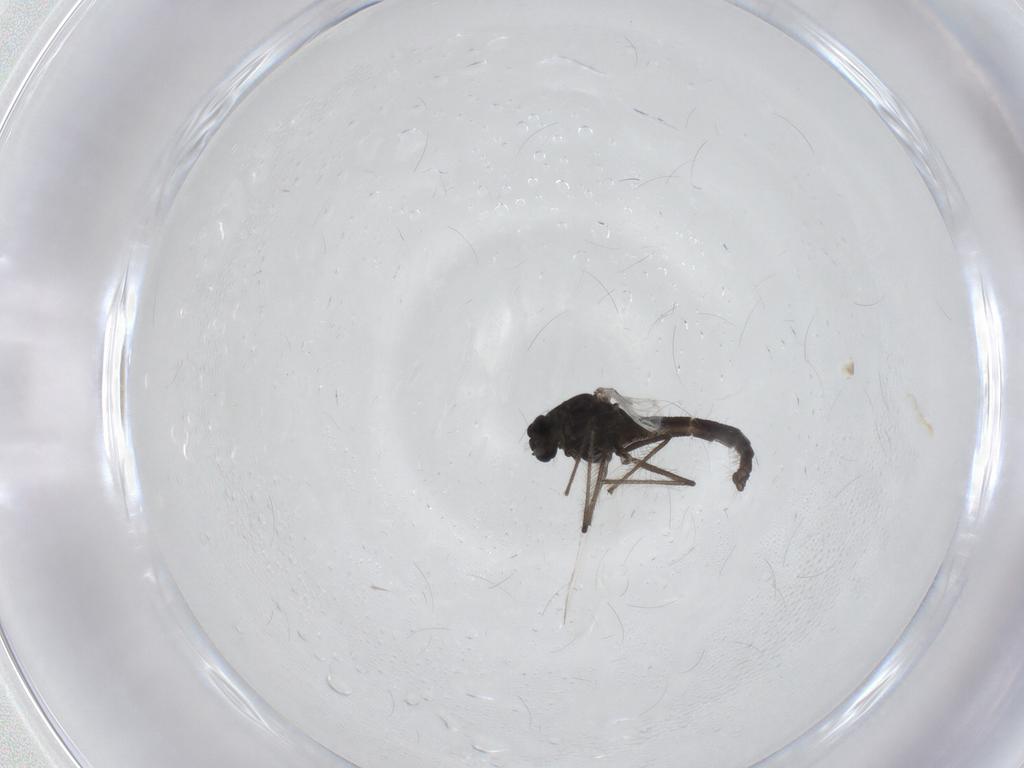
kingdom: Animalia
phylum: Arthropoda
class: Insecta
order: Diptera
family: Chironomidae
